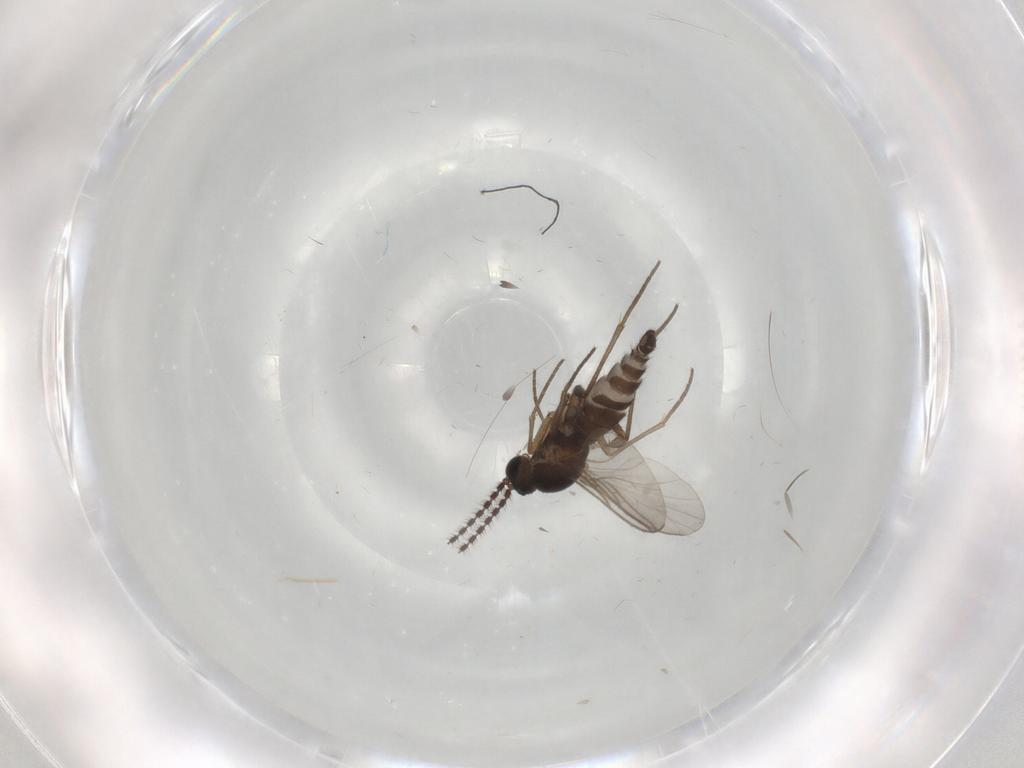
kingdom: Animalia
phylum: Arthropoda
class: Insecta
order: Diptera
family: Sciaridae
